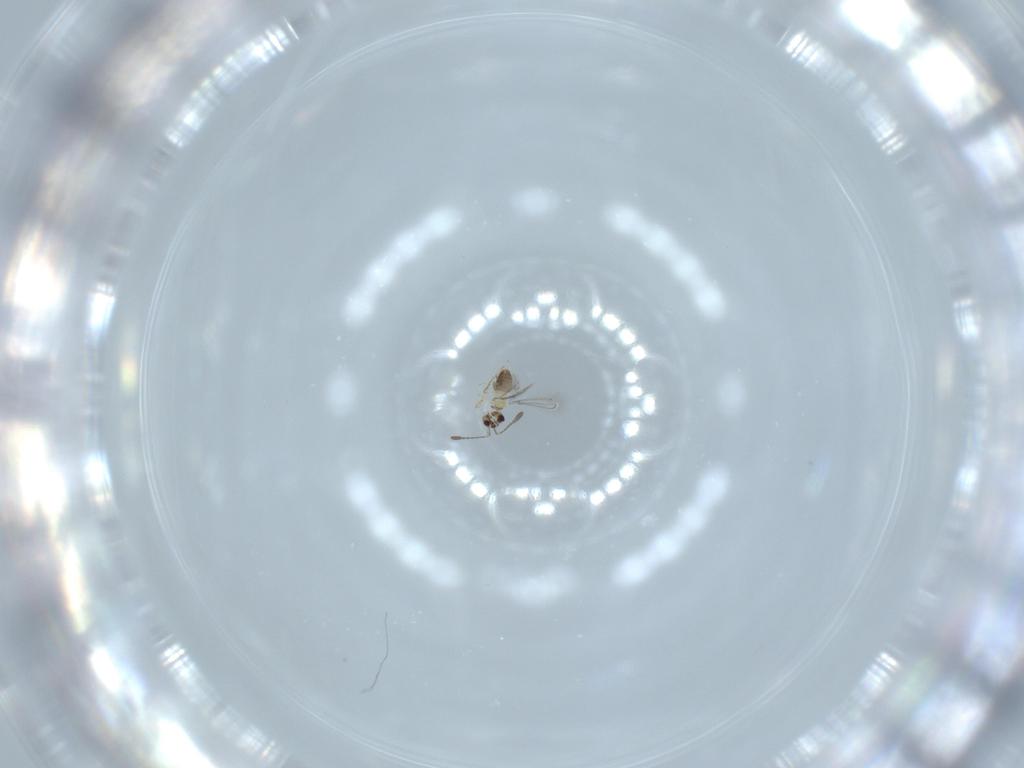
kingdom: Animalia
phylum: Arthropoda
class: Insecta
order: Hymenoptera
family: Mymaridae
